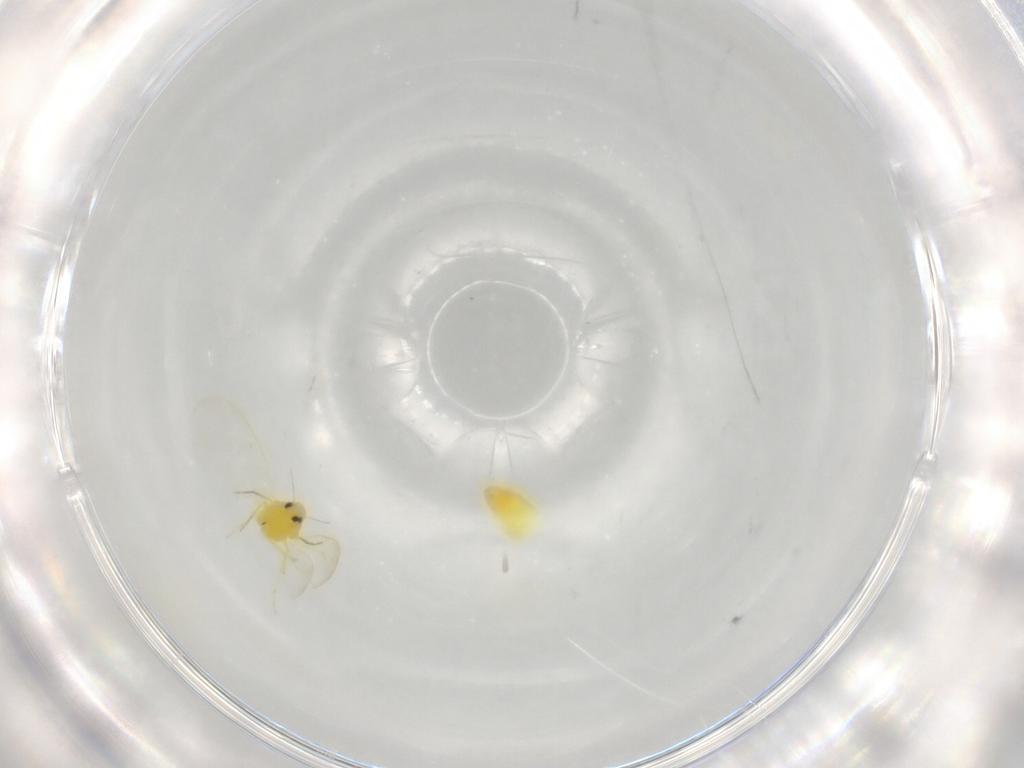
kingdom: Animalia
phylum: Arthropoda
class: Insecta
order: Hemiptera
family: Aleyrodidae
